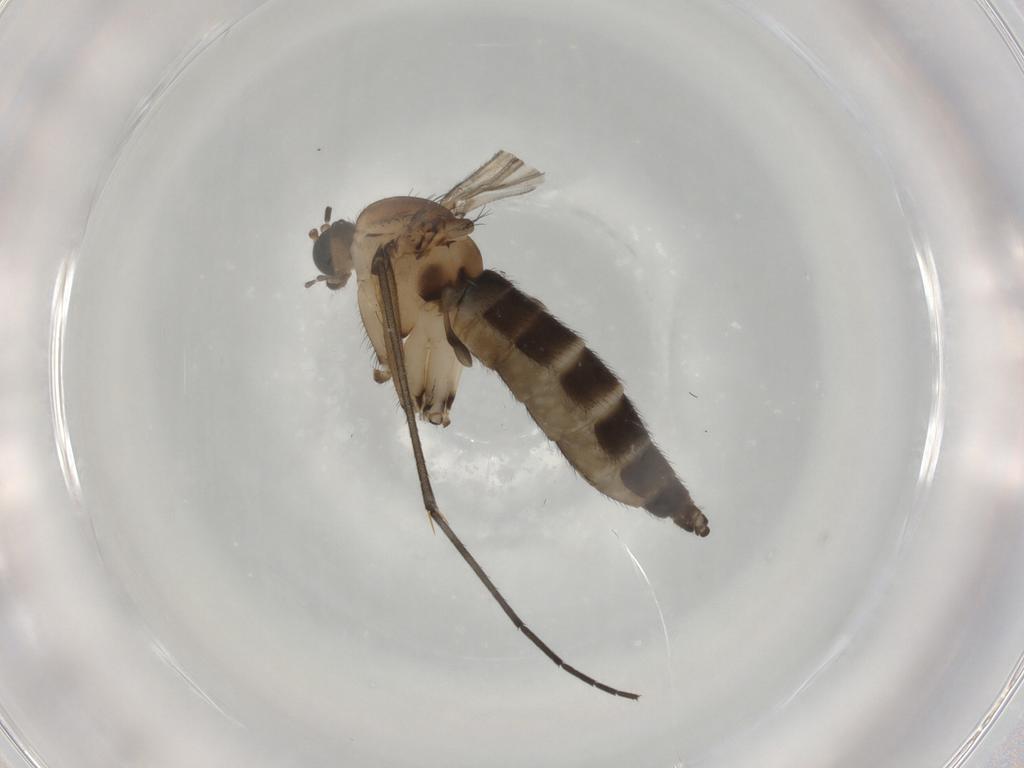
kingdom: Animalia
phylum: Arthropoda
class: Insecta
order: Diptera
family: Sciaridae
